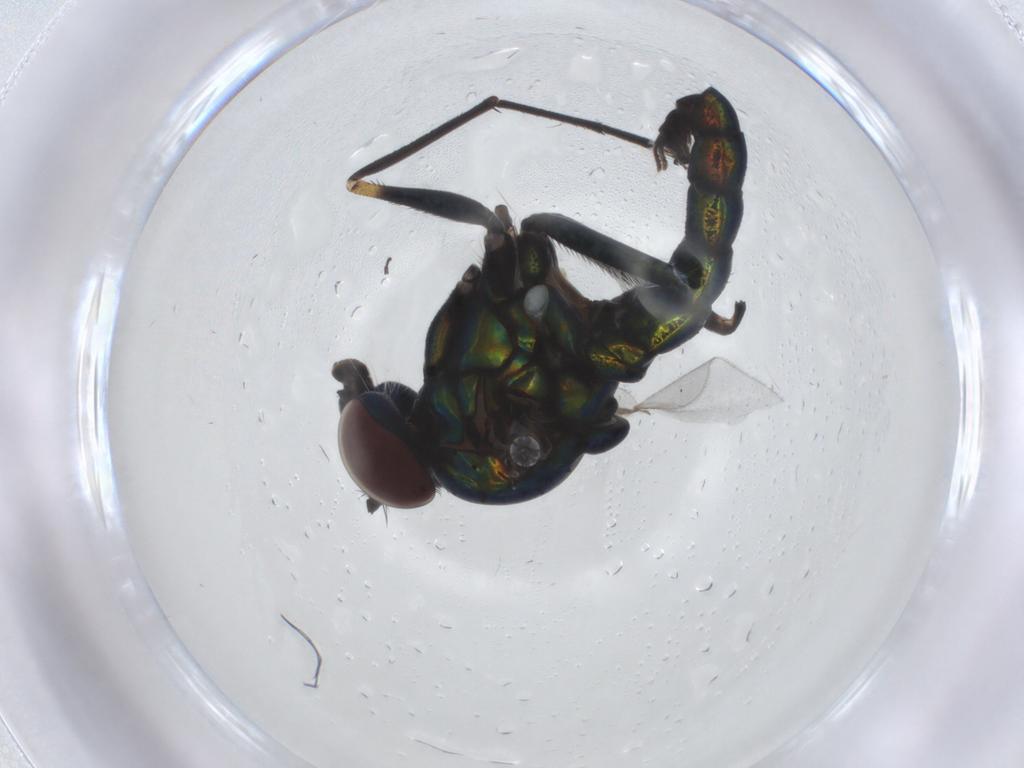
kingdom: Animalia
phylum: Arthropoda
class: Insecta
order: Diptera
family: Dolichopodidae
